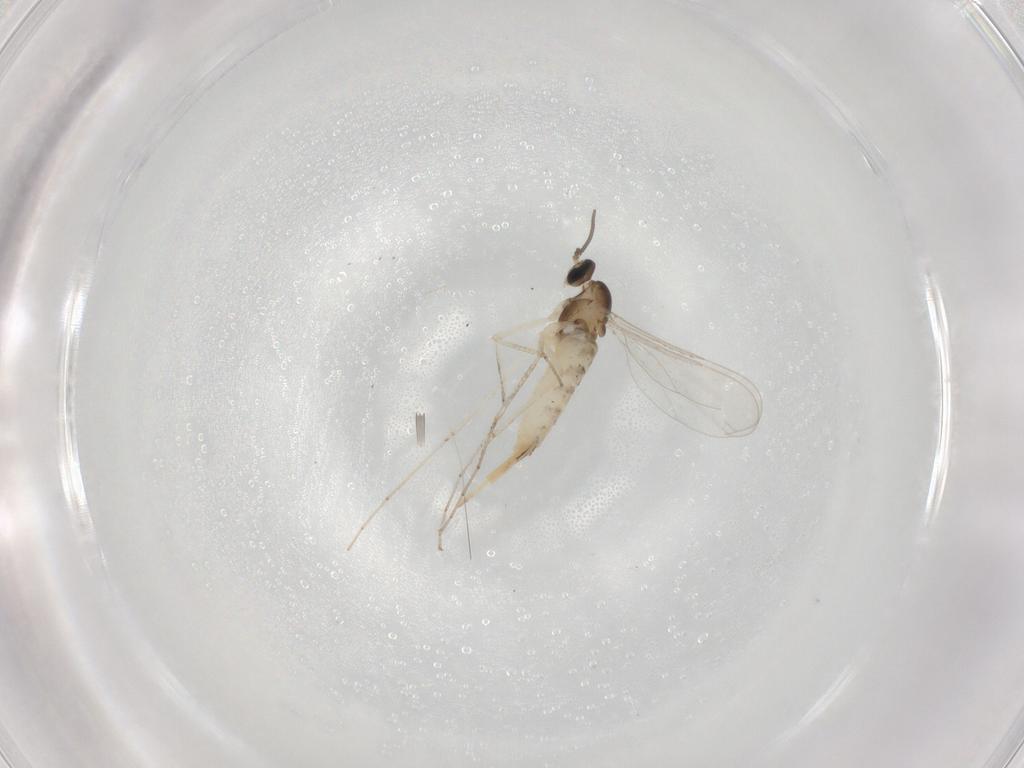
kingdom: Animalia
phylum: Arthropoda
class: Insecta
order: Diptera
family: Cecidomyiidae
